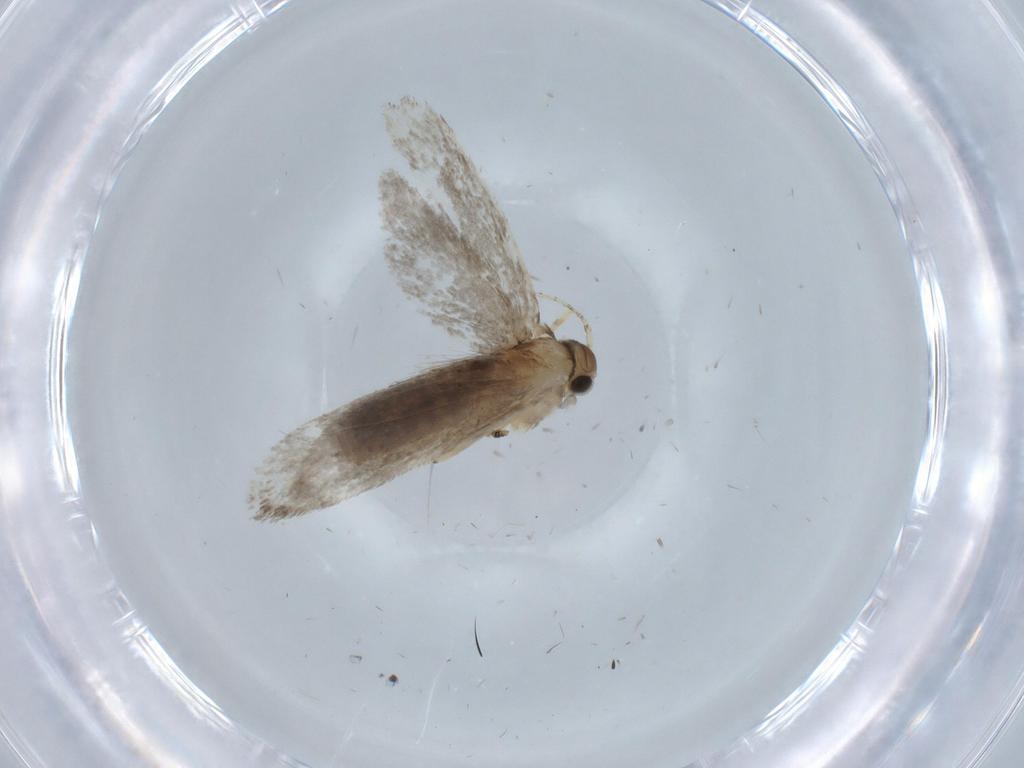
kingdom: Animalia
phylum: Arthropoda
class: Insecta
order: Lepidoptera
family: Tineidae
